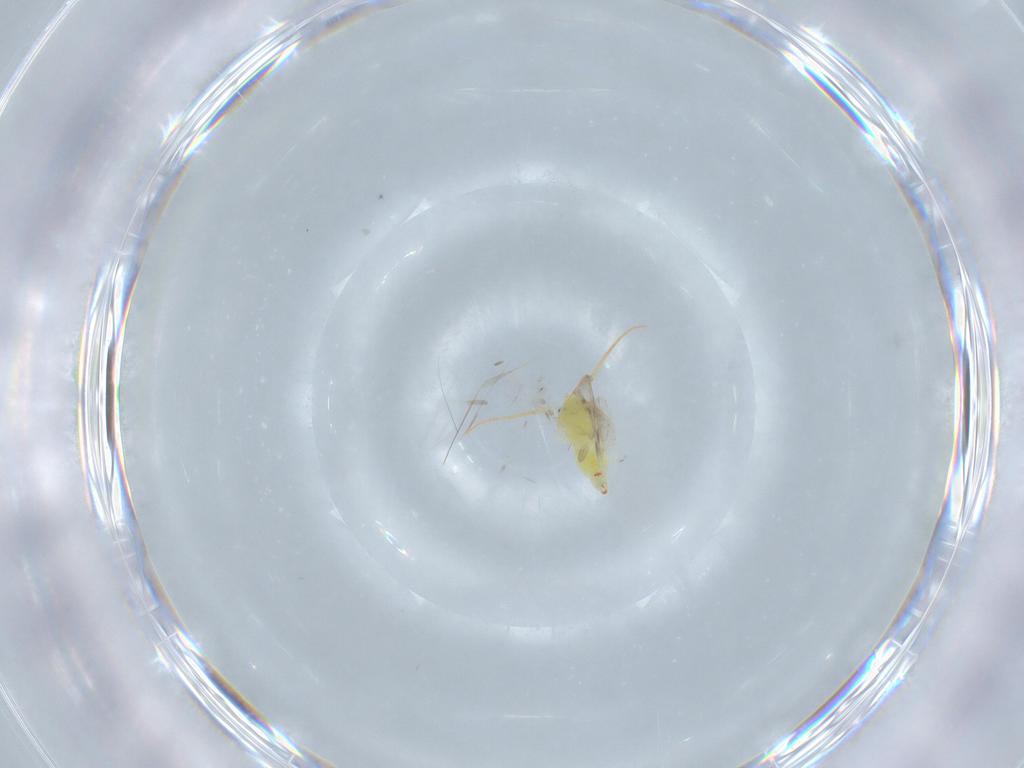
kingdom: Animalia
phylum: Arthropoda
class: Insecta
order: Hemiptera
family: Aleyrodidae
